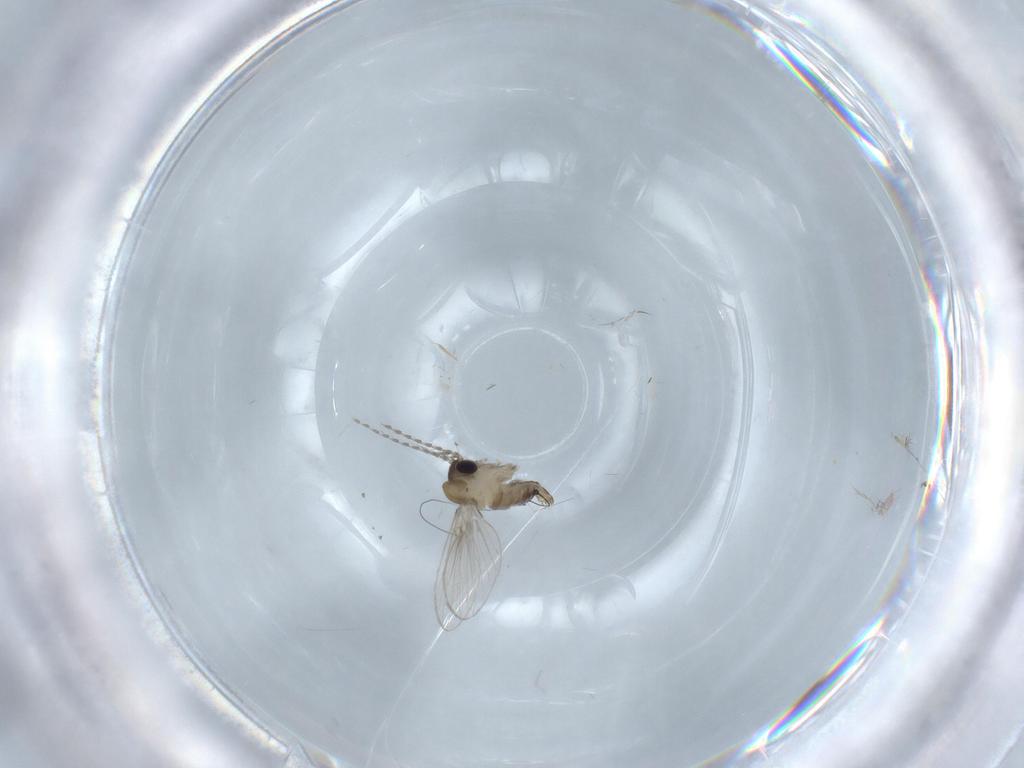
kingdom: Animalia
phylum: Arthropoda
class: Insecta
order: Diptera
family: Psychodidae
